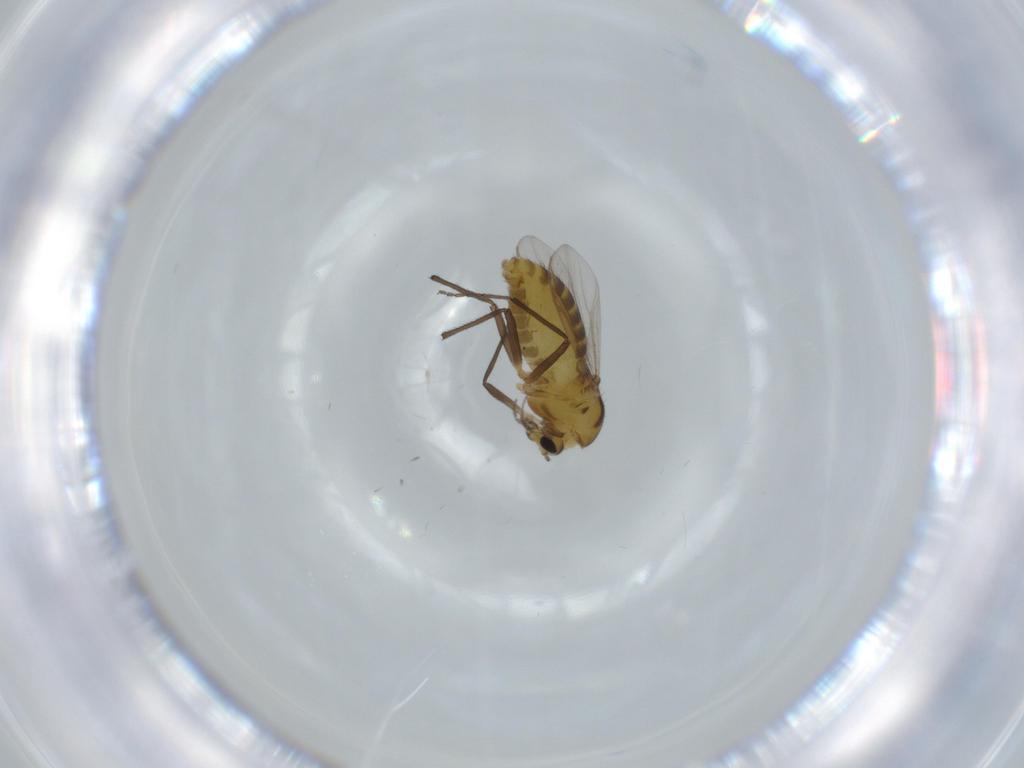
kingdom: Animalia
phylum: Arthropoda
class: Insecta
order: Diptera
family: Chironomidae
